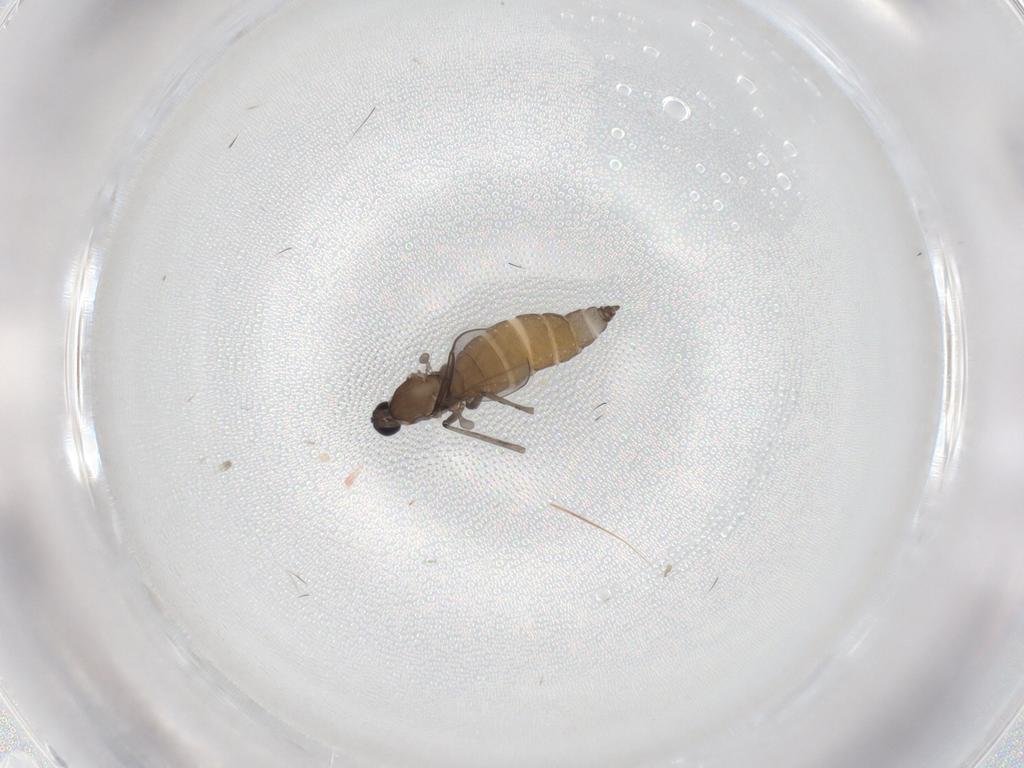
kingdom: Animalia
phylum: Arthropoda
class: Insecta
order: Diptera
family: Cecidomyiidae
